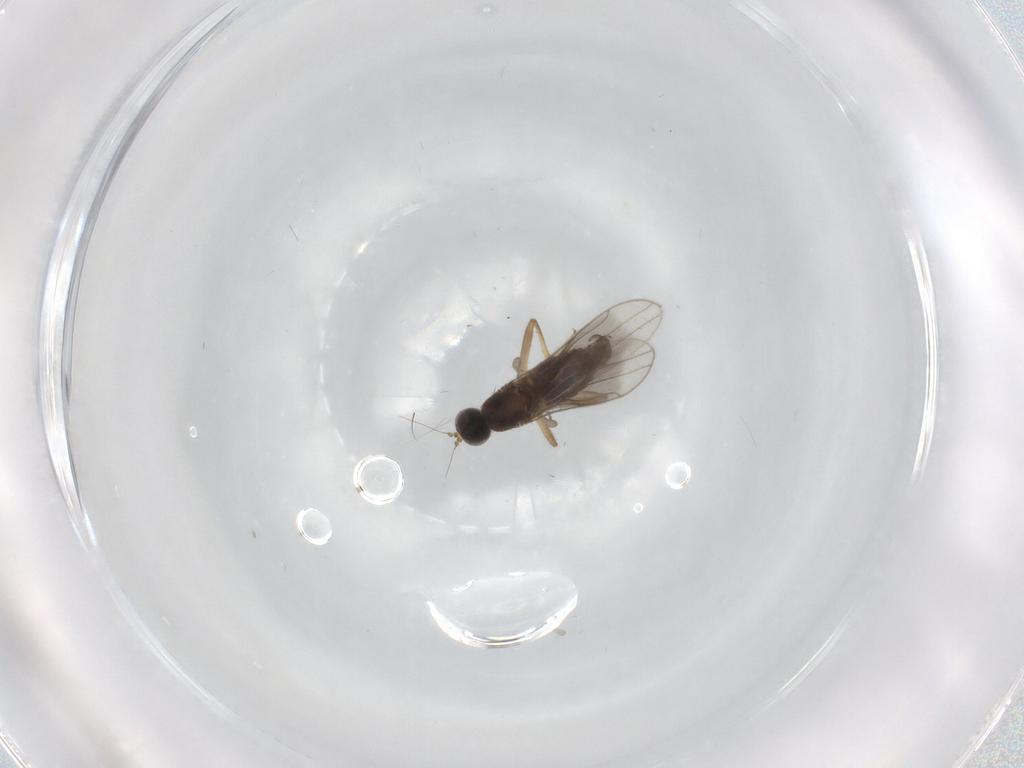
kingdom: Animalia
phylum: Arthropoda
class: Insecta
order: Diptera
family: Hybotidae
